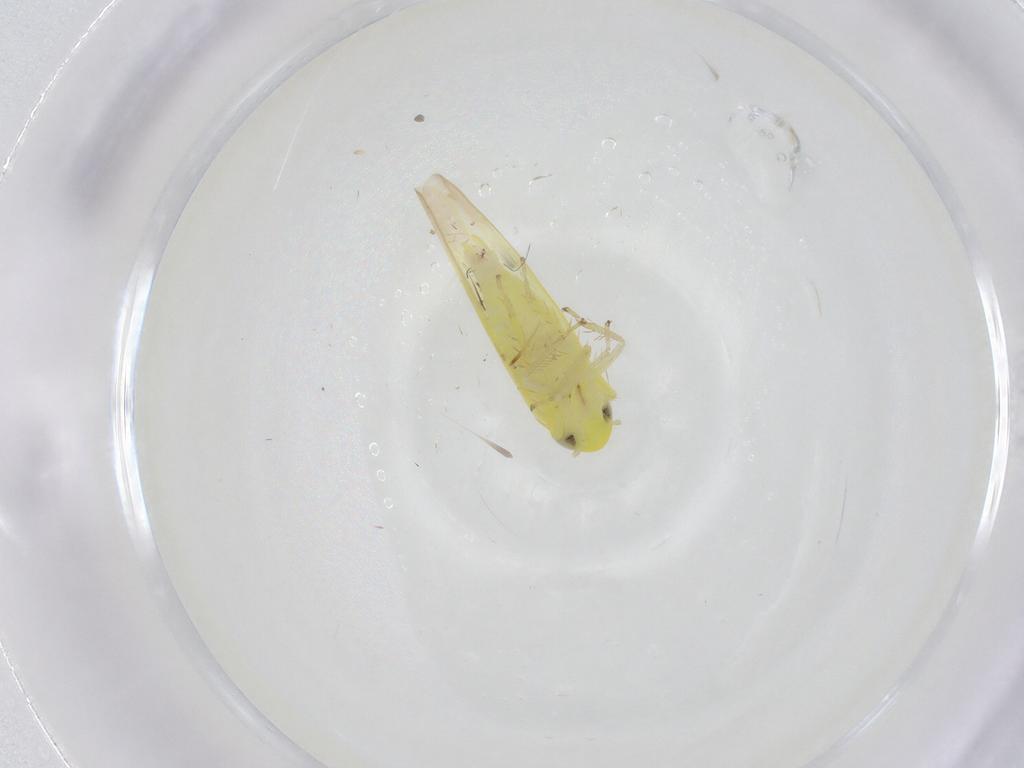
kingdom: Animalia
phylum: Arthropoda
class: Insecta
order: Hemiptera
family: Cicadellidae
